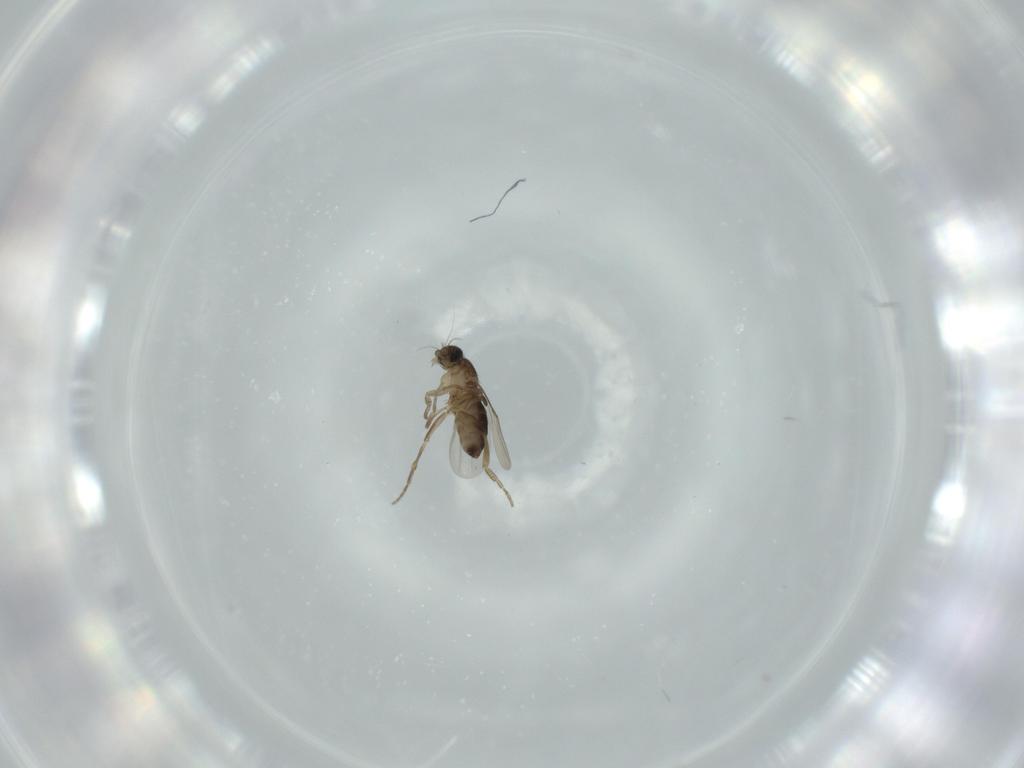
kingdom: Animalia
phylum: Arthropoda
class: Insecta
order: Diptera
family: Phoridae
